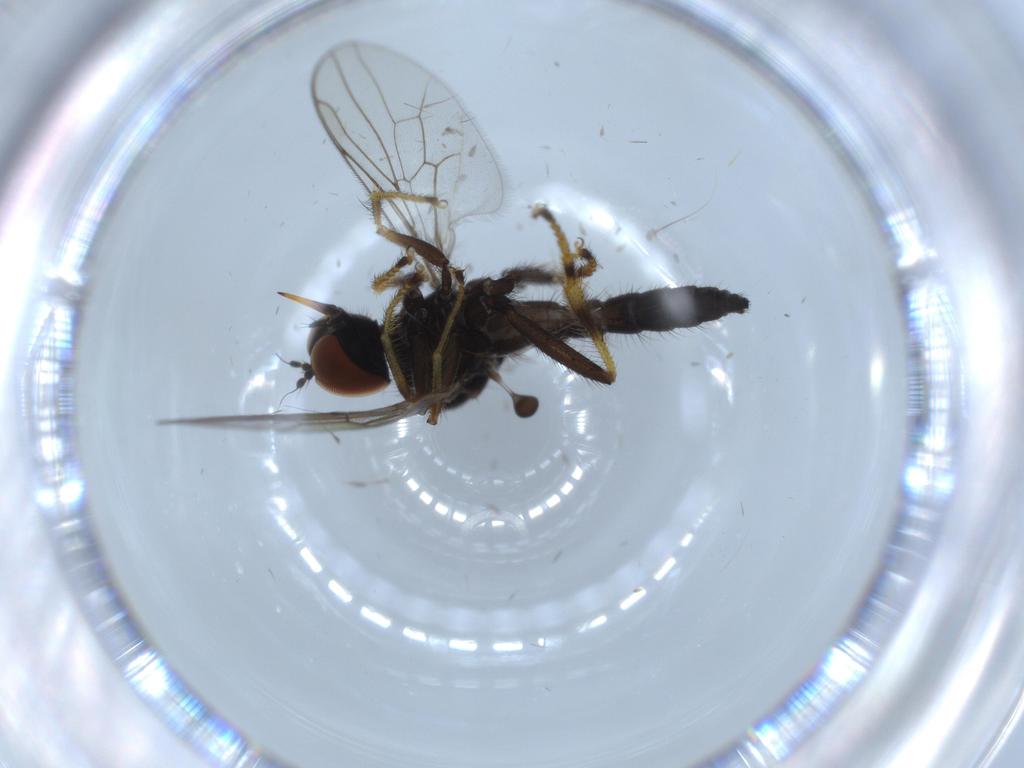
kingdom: Animalia
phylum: Arthropoda
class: Insecta
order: Diptera
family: Hybotidae
